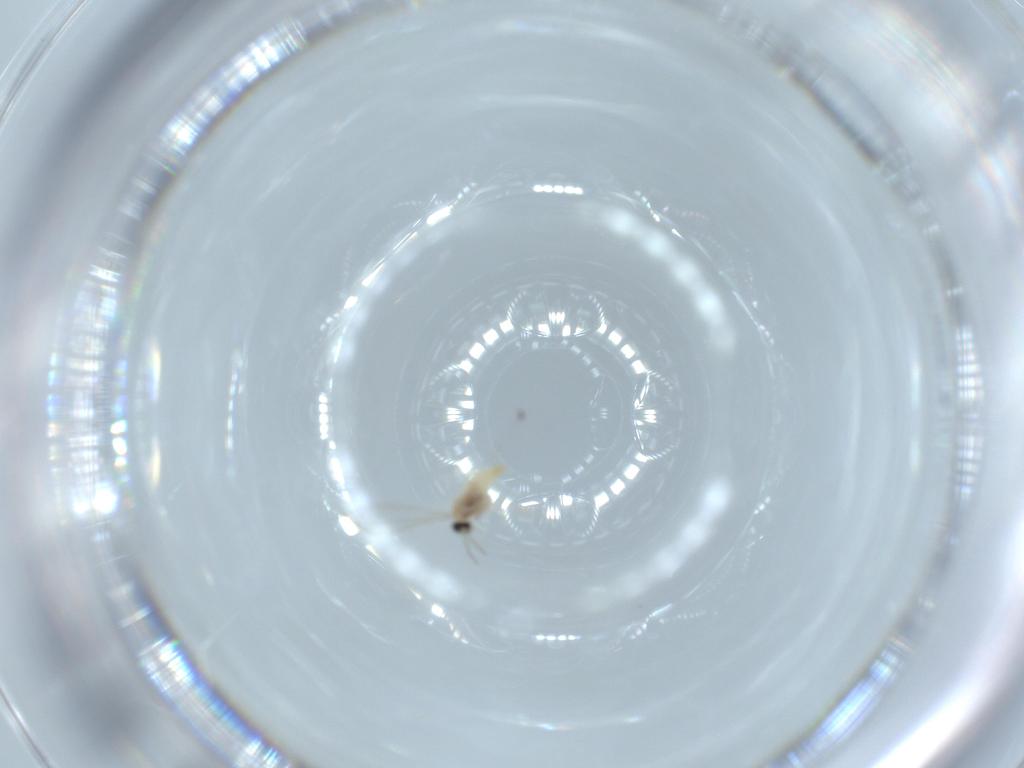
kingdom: Animalia
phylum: Arthropoda
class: Insecta
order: Diptera
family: Cecidomyiidae
